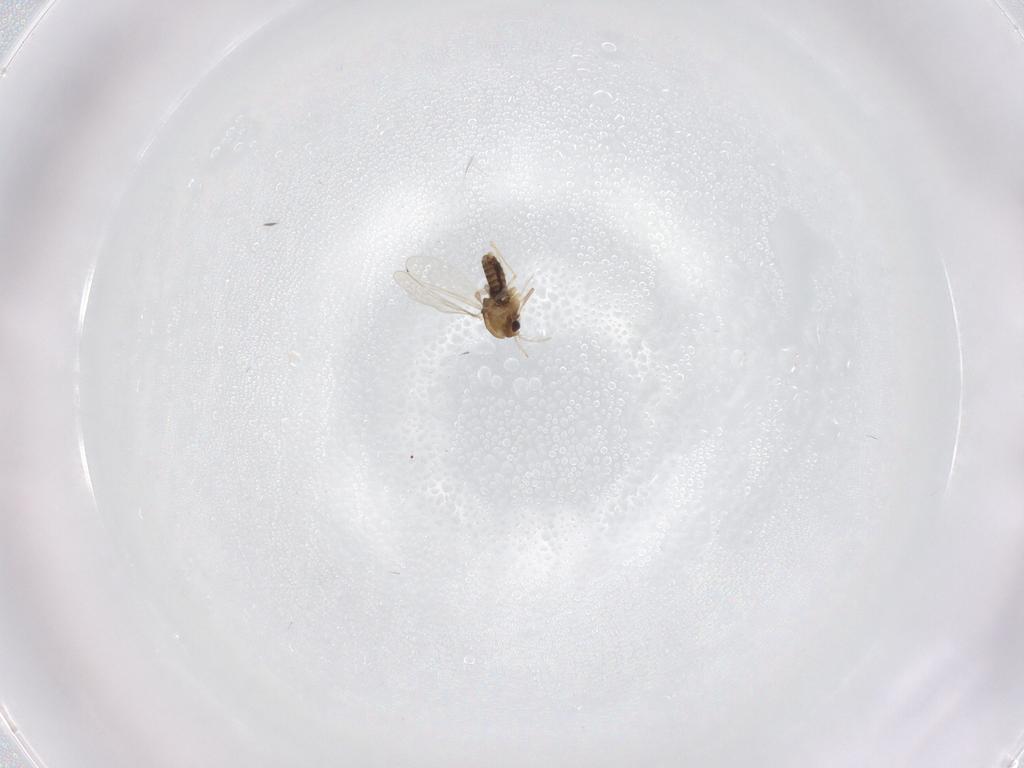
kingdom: Animalia
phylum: Arthropoda
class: Insecta
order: Diptera
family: Chironomidae
